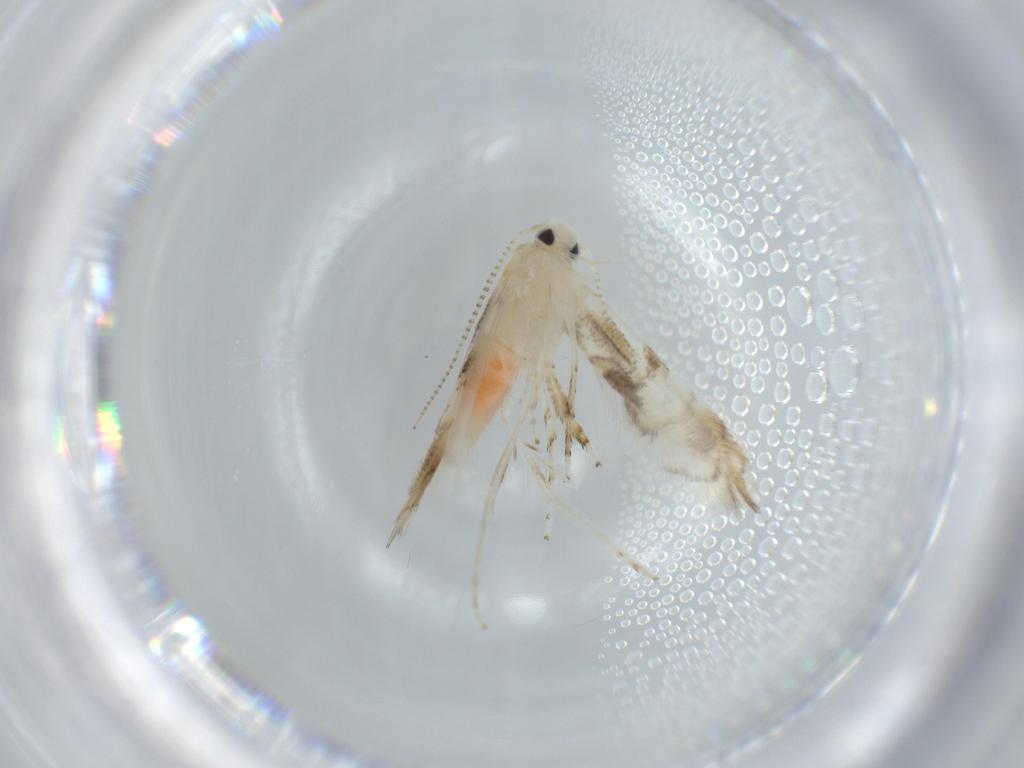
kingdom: Animalia
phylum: Arthropoda
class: Insecta
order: Lepidoptera
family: Gracillariidae
